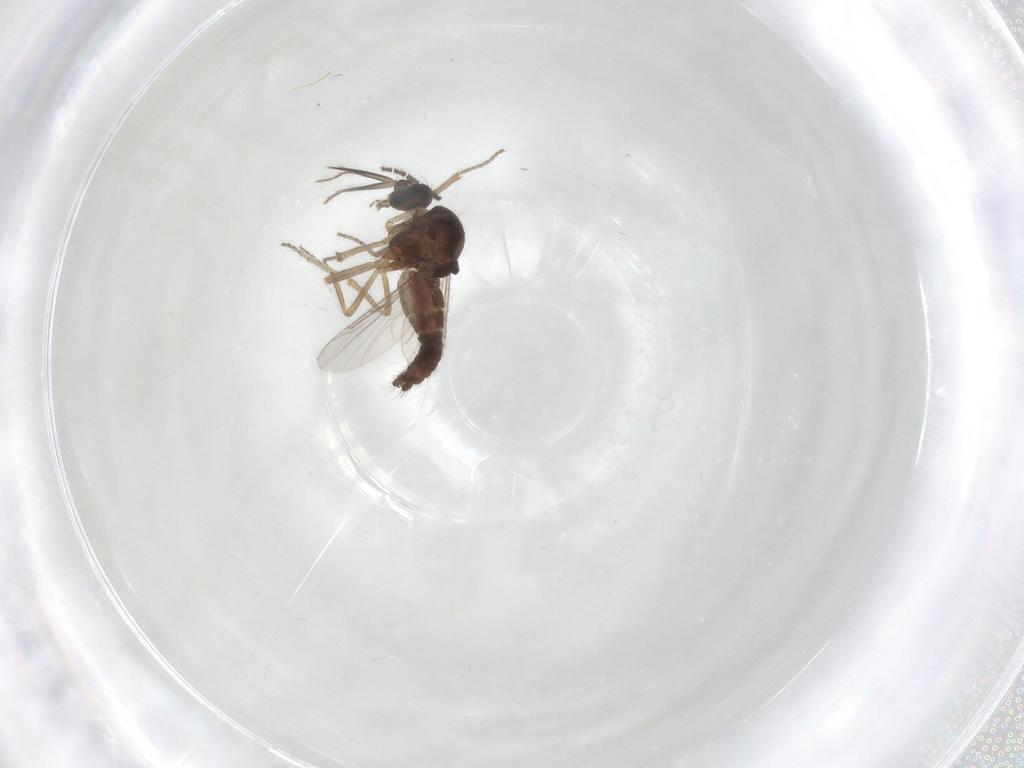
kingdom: Animalia
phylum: Arthropoda
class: Insecta
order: Diptera
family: Ceratopogonidae
